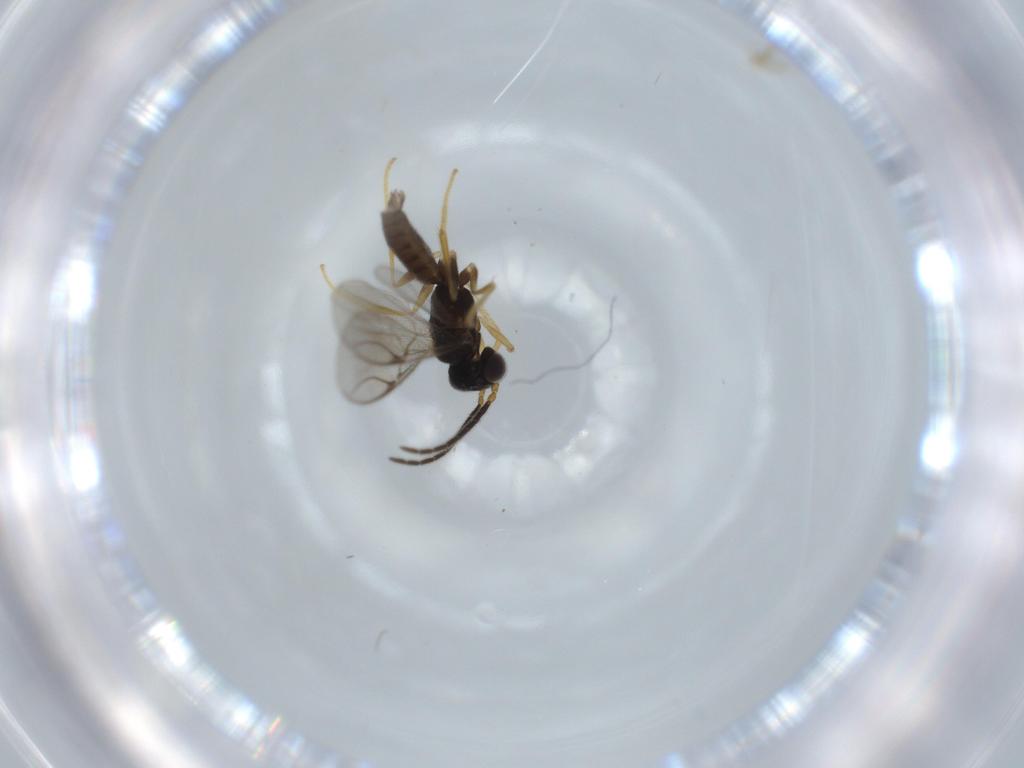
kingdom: Animalia
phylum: Arthropoda
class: Insecta
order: Hymenoptera
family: Dryinidae
